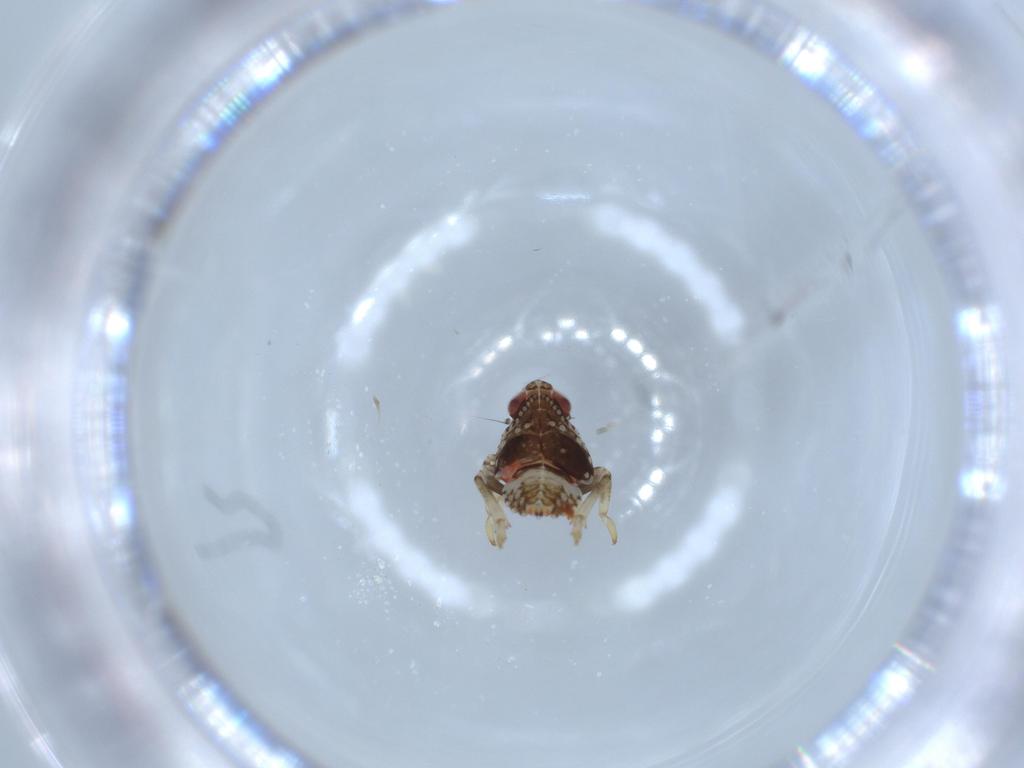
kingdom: Animalia
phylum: Arthropoda
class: Insecta
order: Hemiptera
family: Issidae
